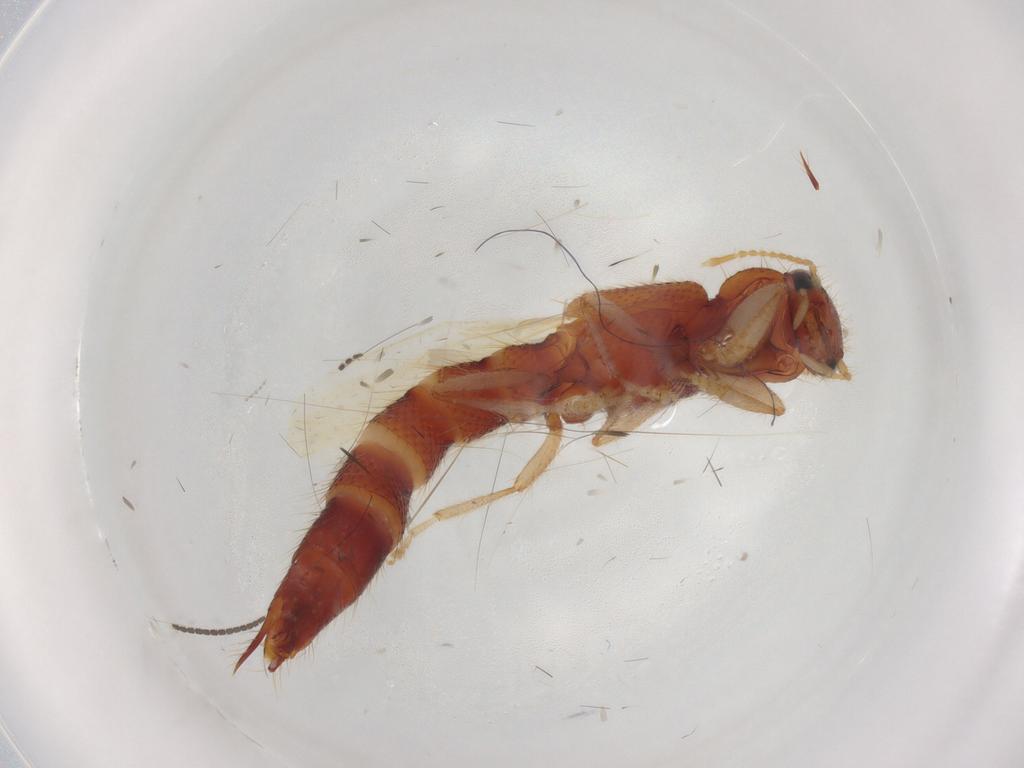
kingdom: Animalia
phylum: Arthropoda
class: Insecta
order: Coleoptera
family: Staphylinidae
